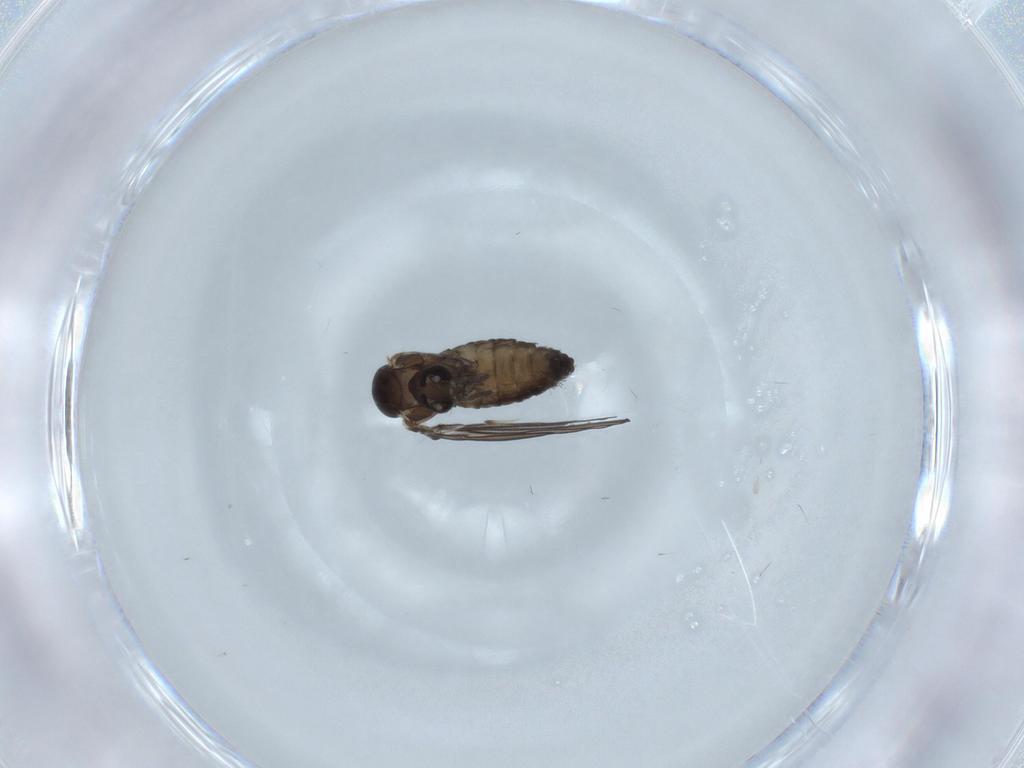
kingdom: Animalia
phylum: Arthropoda
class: Insecta
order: Diptera
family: Psychodidae
